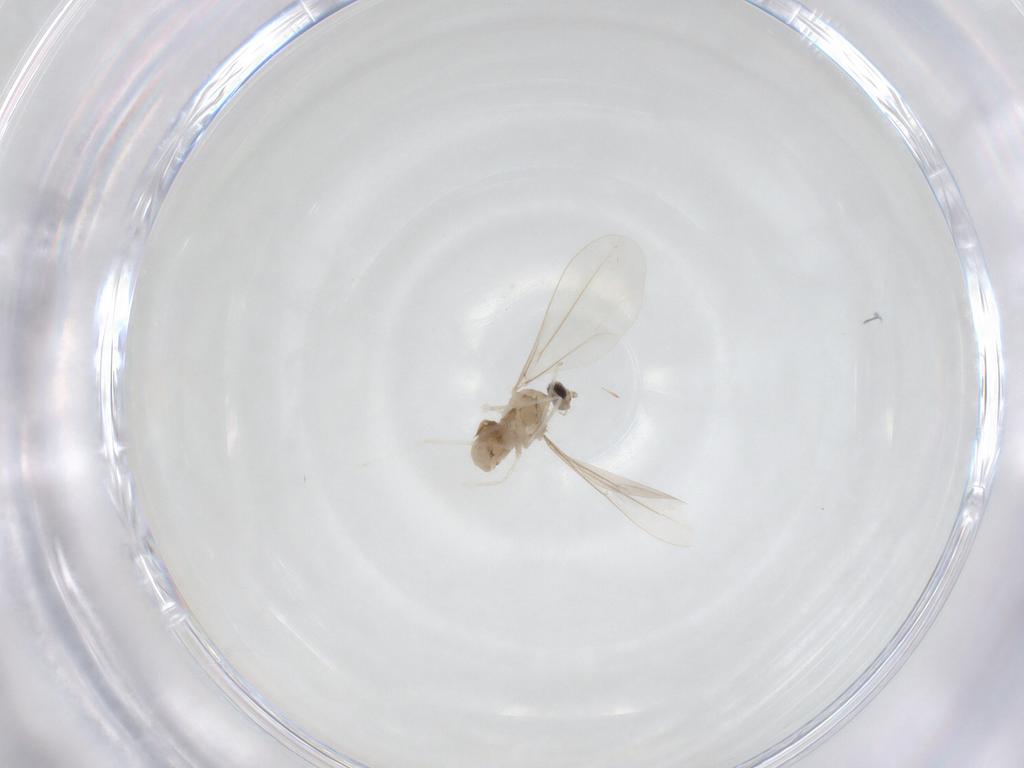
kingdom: Animalia
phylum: Arthropoda
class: Insecta
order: Diptera
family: Cecidomyiidae
